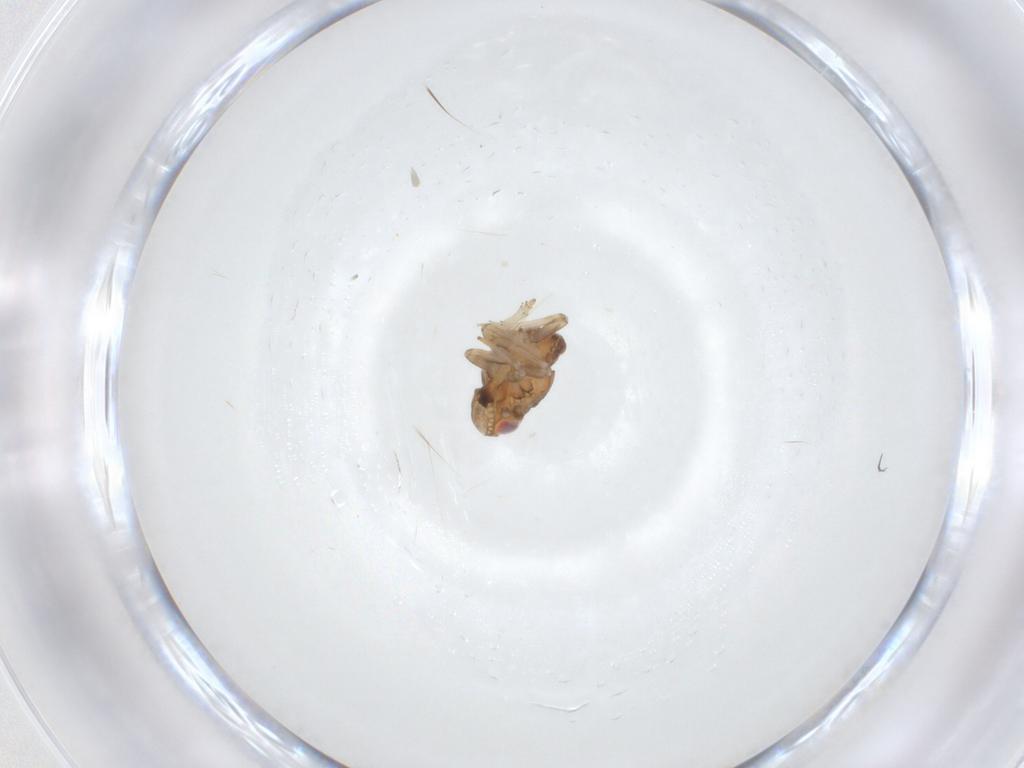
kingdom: Animalia
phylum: Arthropoda
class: Insecta
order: Hemiptera
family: Issidae
